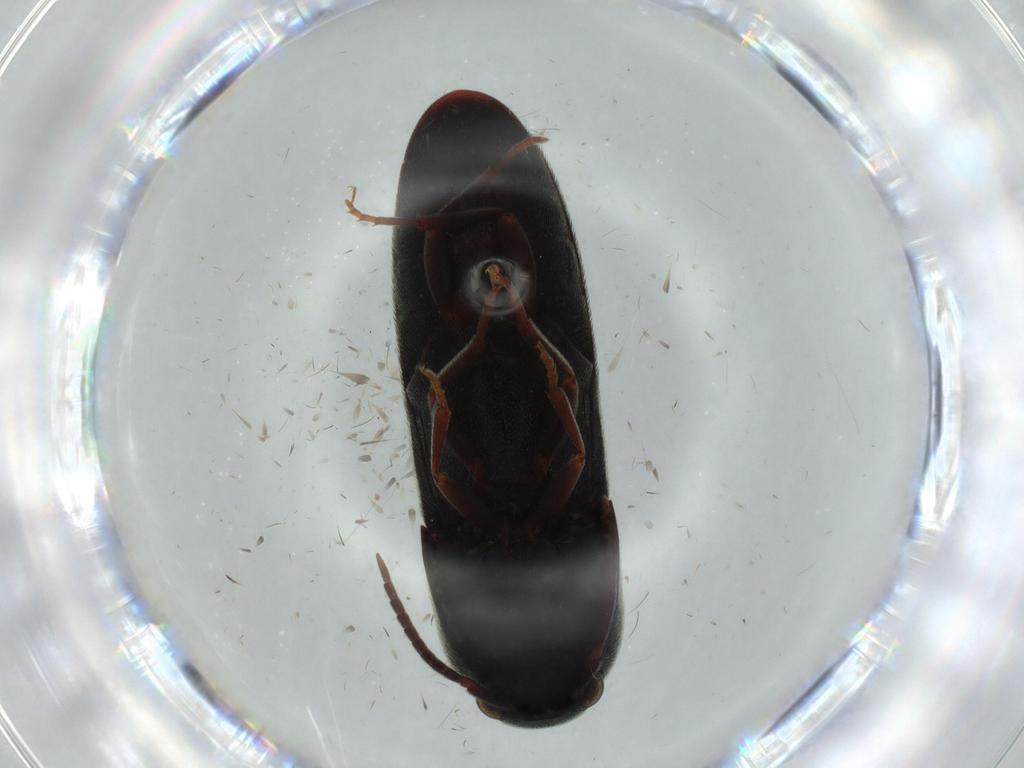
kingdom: Animalia
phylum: Arthropoda
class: Insecta
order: Coleoptera
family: Eucnemidae
